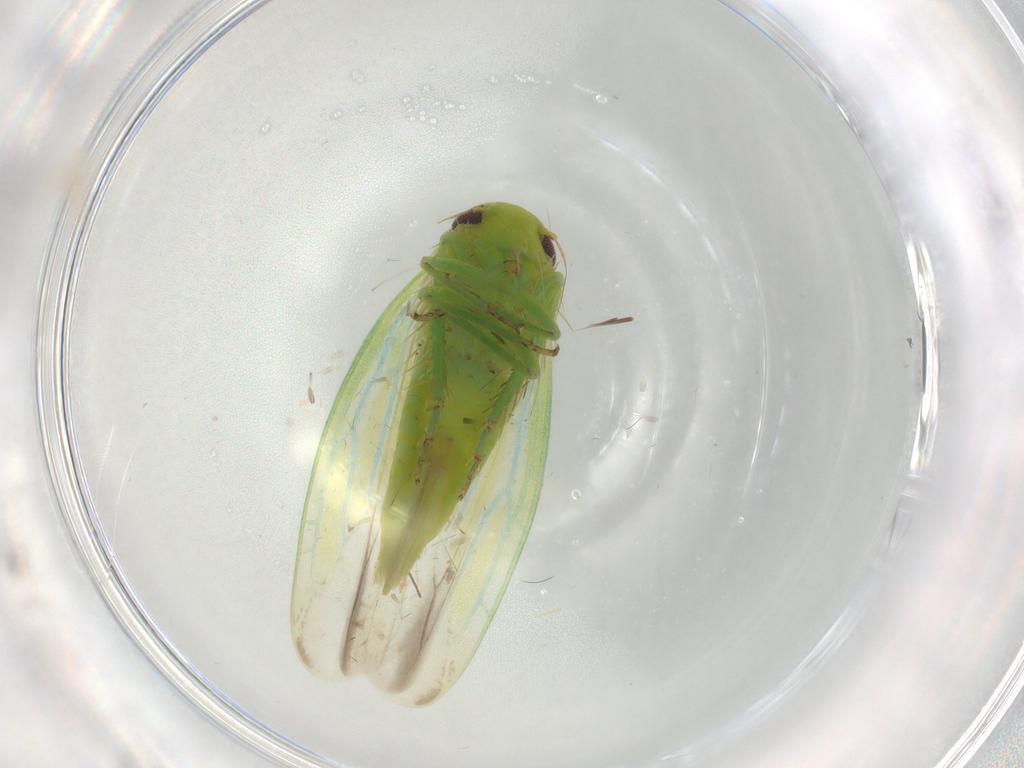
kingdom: Animalia
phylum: Arthropoda
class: Insecta
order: Hemiptera
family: Cicadellidae
